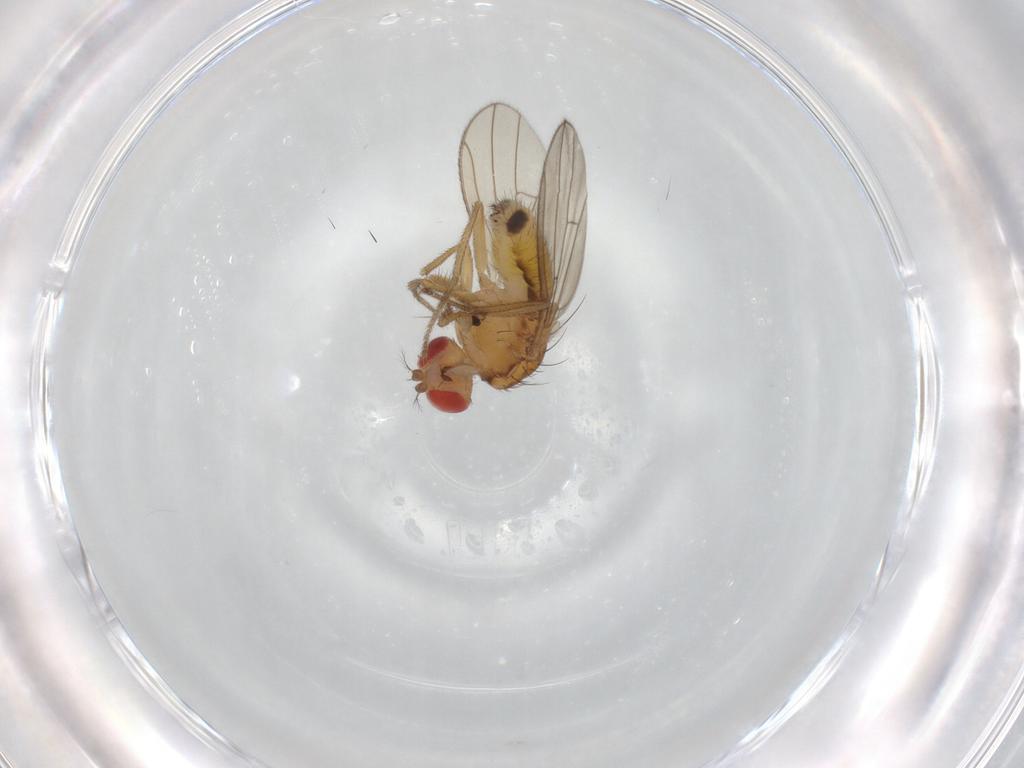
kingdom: Animalia
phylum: Arthropoda
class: Insecta
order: Diptera
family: Drosophilidae
